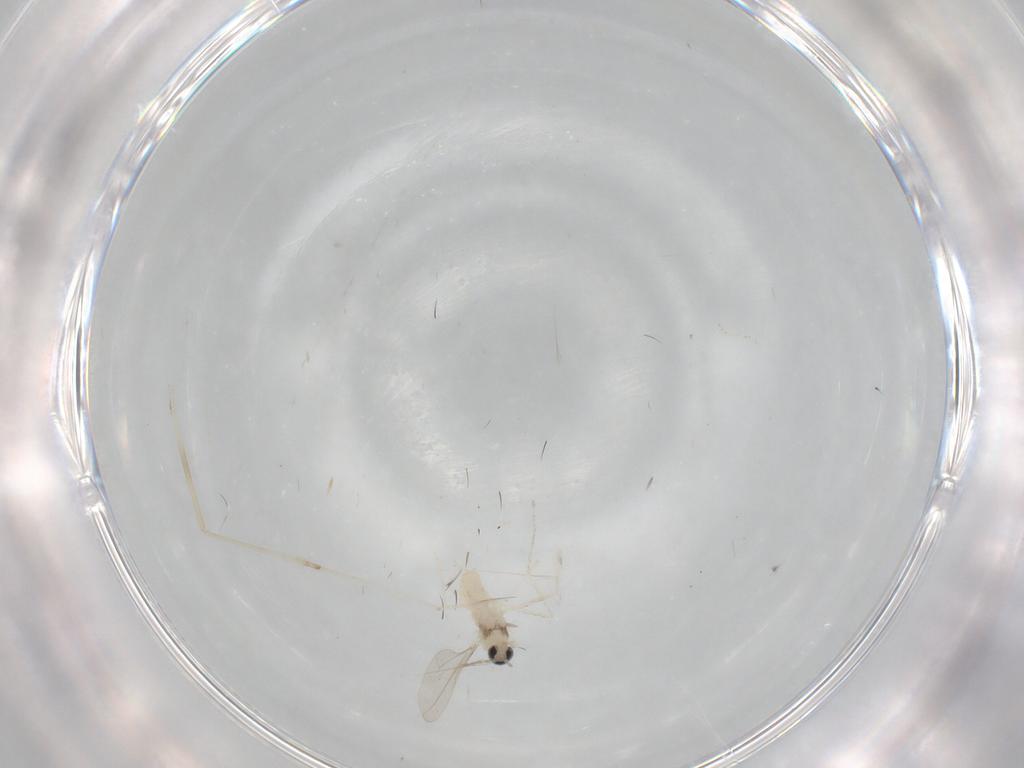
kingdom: Animalia
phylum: Arthropoda
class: Insecta
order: Diptera
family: Cecidomyiidae
